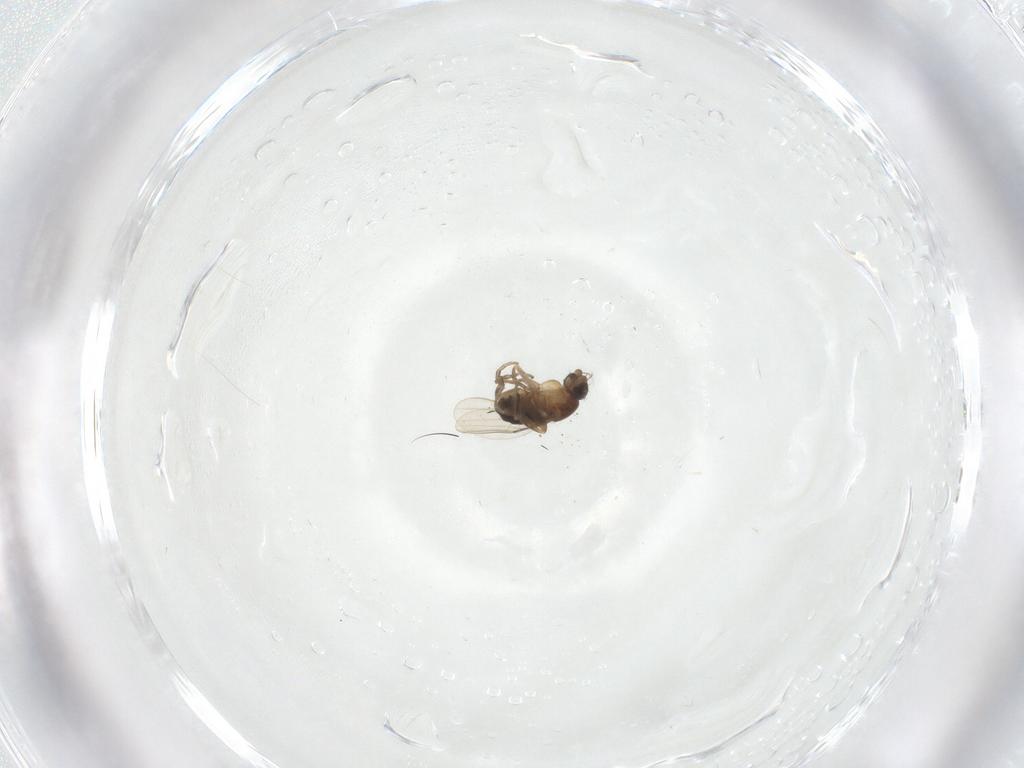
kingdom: Animalia
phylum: Arthropoda
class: Insecta
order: Diptera
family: Phoridae
